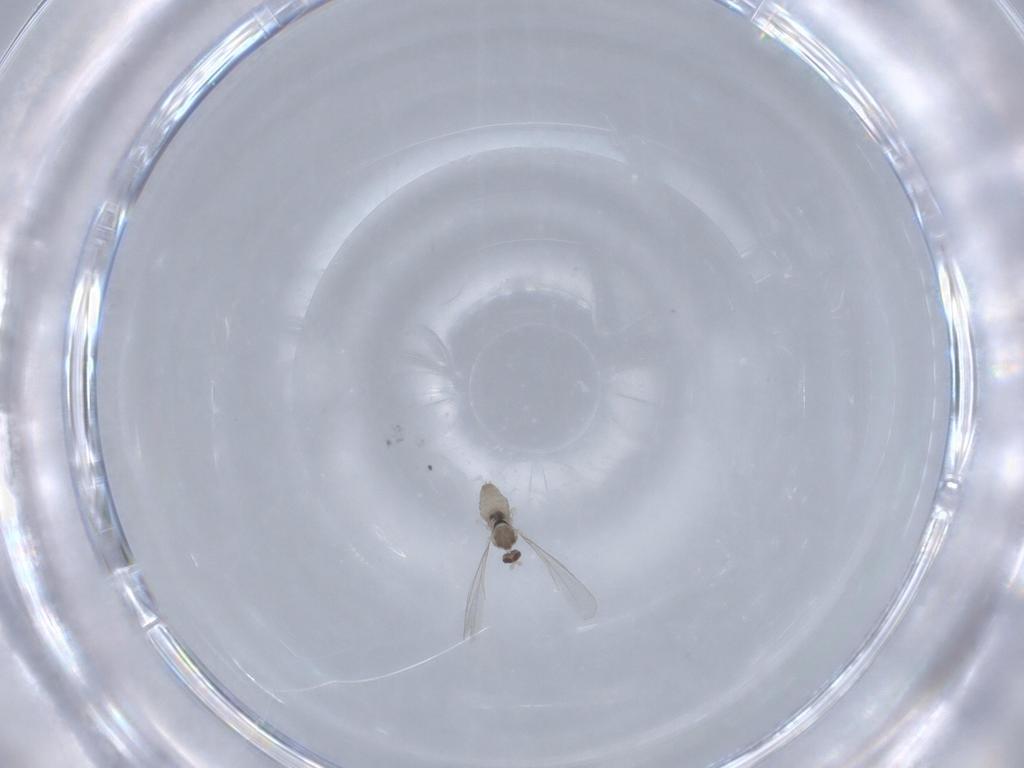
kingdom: Animalia
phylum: Arthropoda
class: Insecta
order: Diptera
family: Cecidomyiidae
